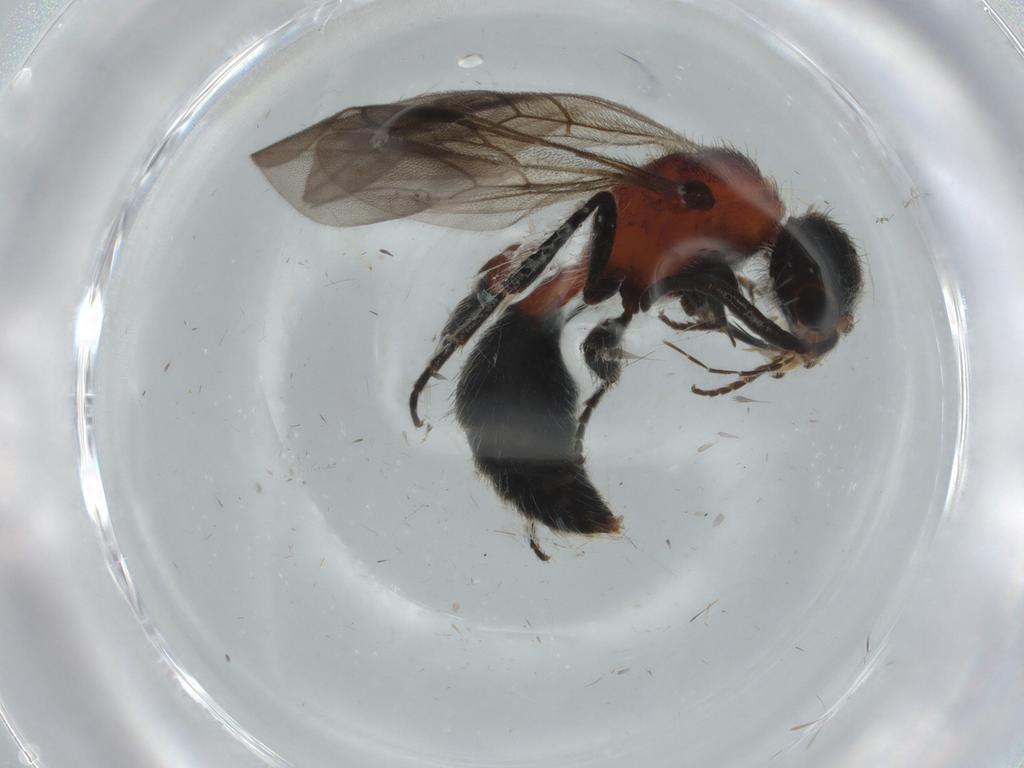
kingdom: Animalia
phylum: Arthropoda
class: Insecta
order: Hymenoptera
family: Mutillidae
